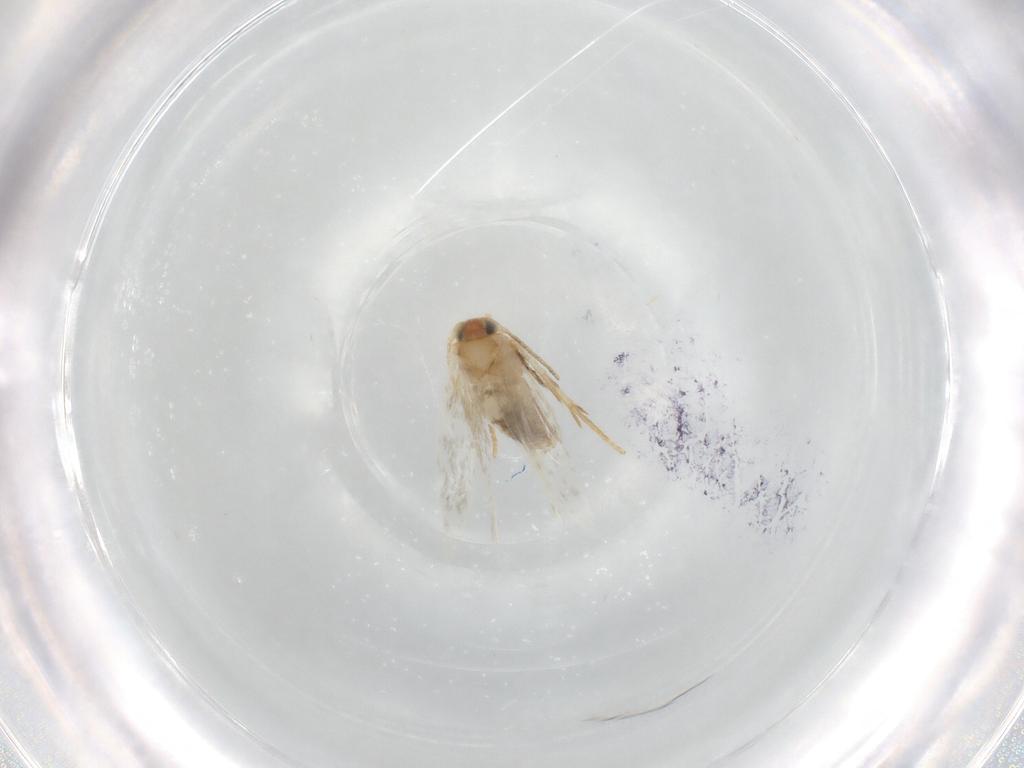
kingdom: Animalia
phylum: Arthropoda
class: Insecta
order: Lepidoptera
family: Nepticulidae
